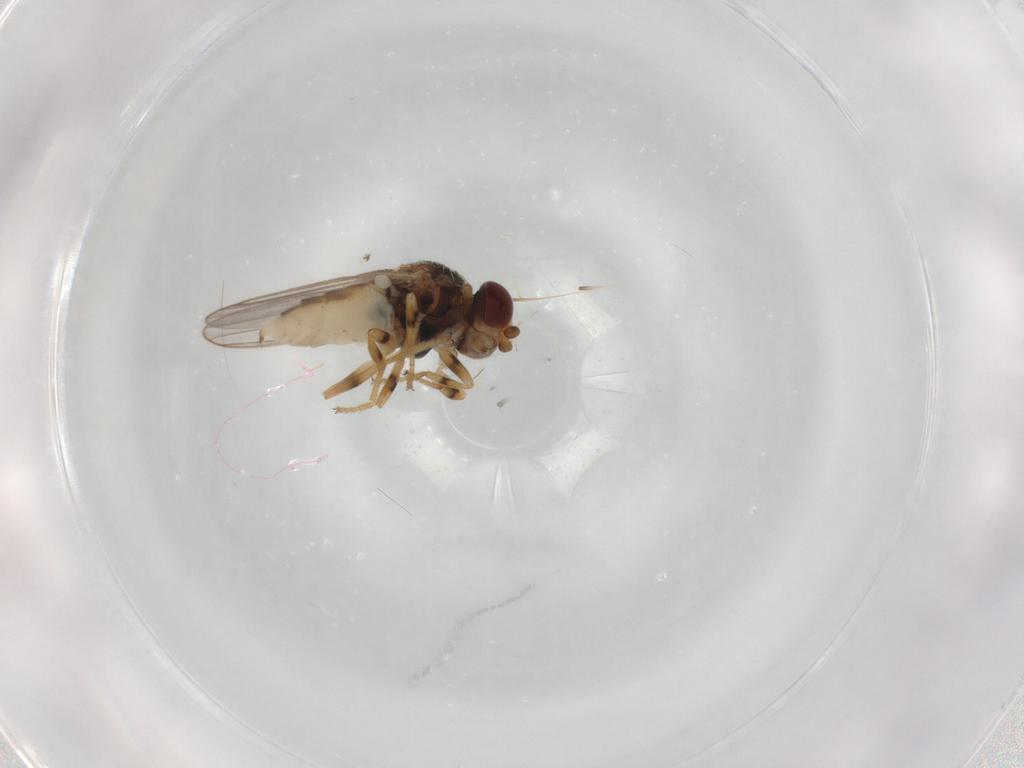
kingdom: Animalia
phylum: Arthropoda
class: Insecta
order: Diptera
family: Chloropidae
